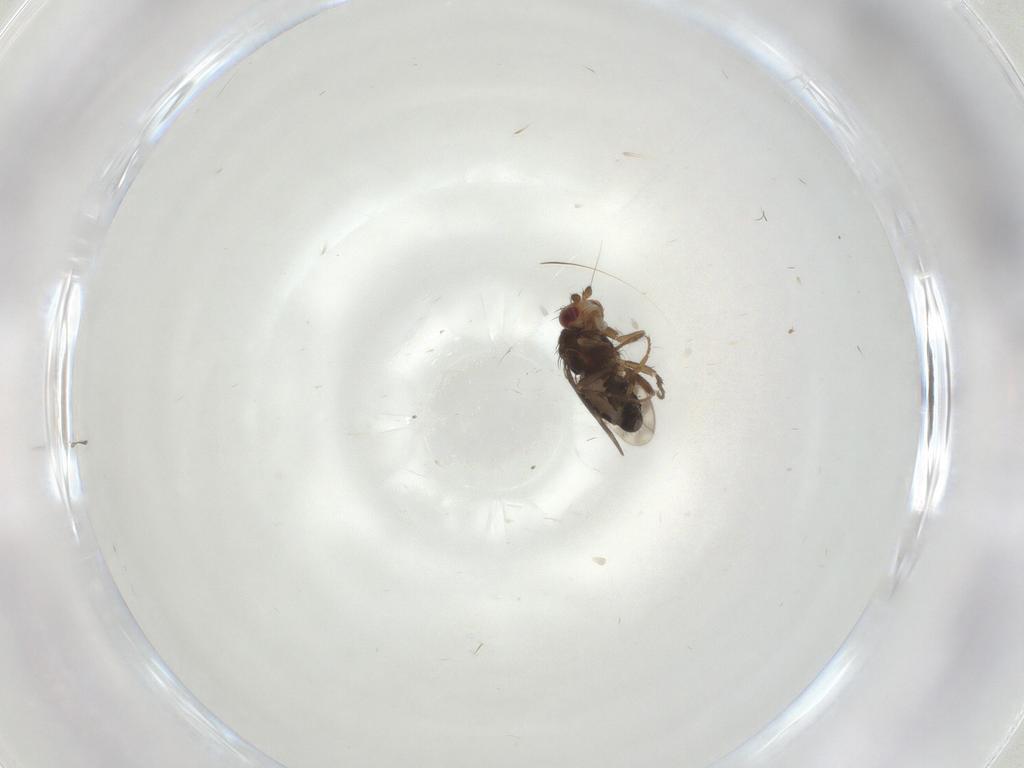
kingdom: Animalia
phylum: Arthropoda
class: Insecta
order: Diptera
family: Sphaeroceridae
